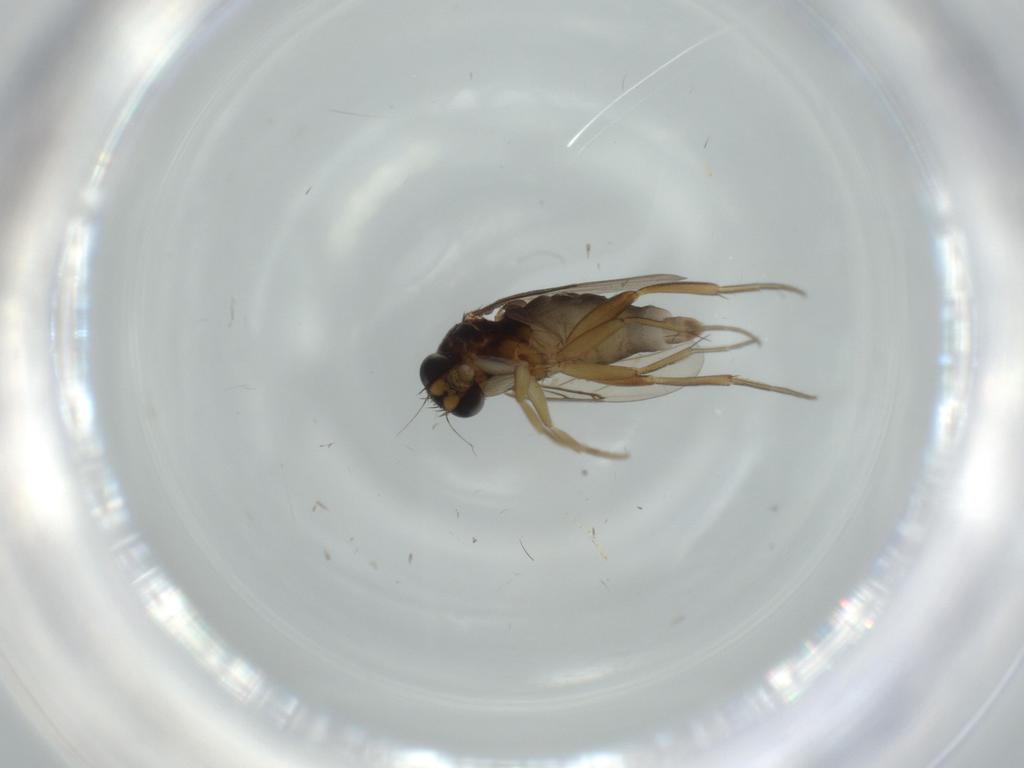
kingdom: Animalia
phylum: Arthropoda
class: Insecta
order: Diptera
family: Phoridae
